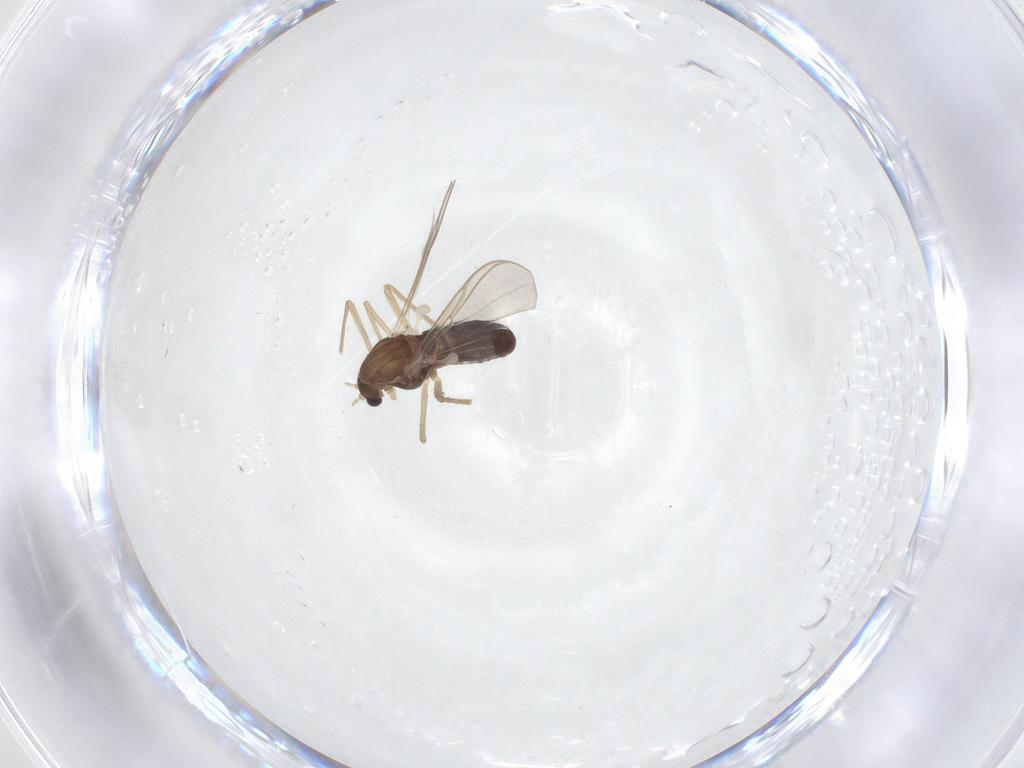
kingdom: Animalia
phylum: Arthropoda
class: Insecta
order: Diptera
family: Chironomidae
